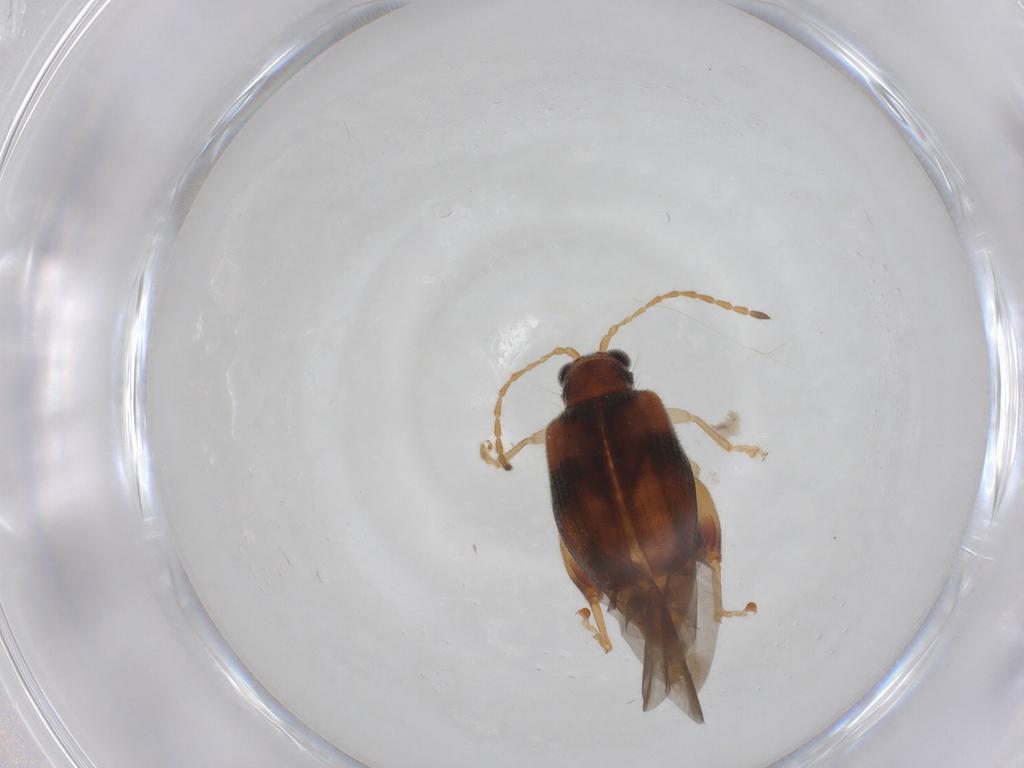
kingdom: Animalia
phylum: Arthropoda
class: Insecta
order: Coleoptera
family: Chrysomelidae
